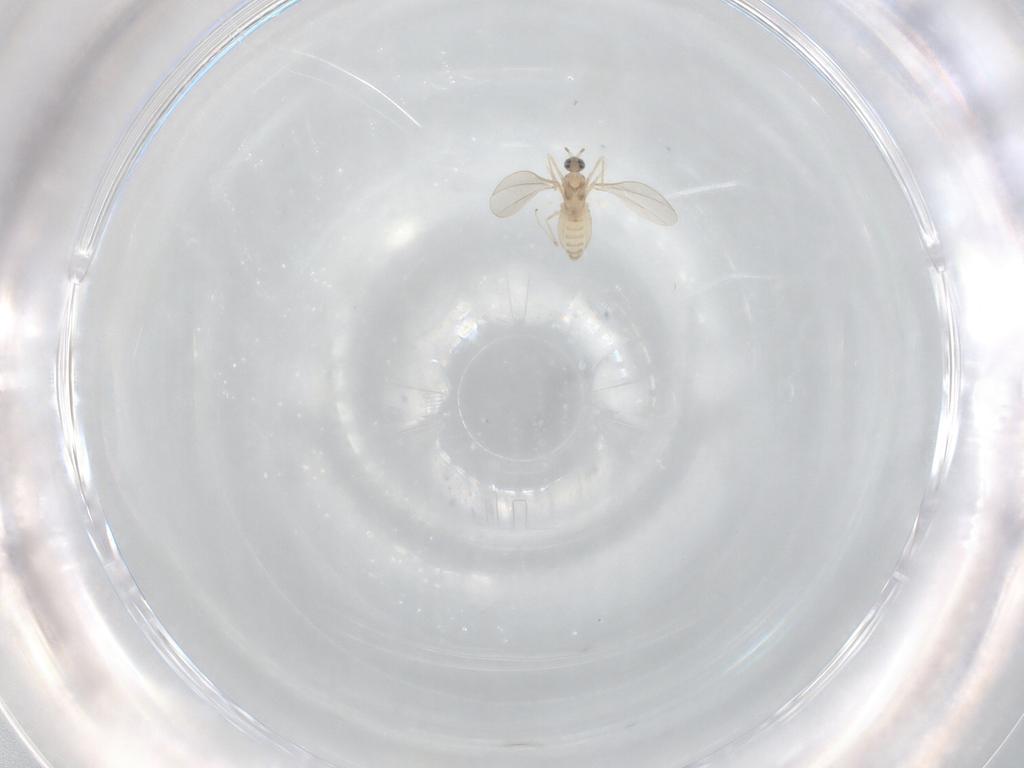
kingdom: Animalia
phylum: Arthropoda
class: Insecta
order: Diptera
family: Cecidomyiidae
